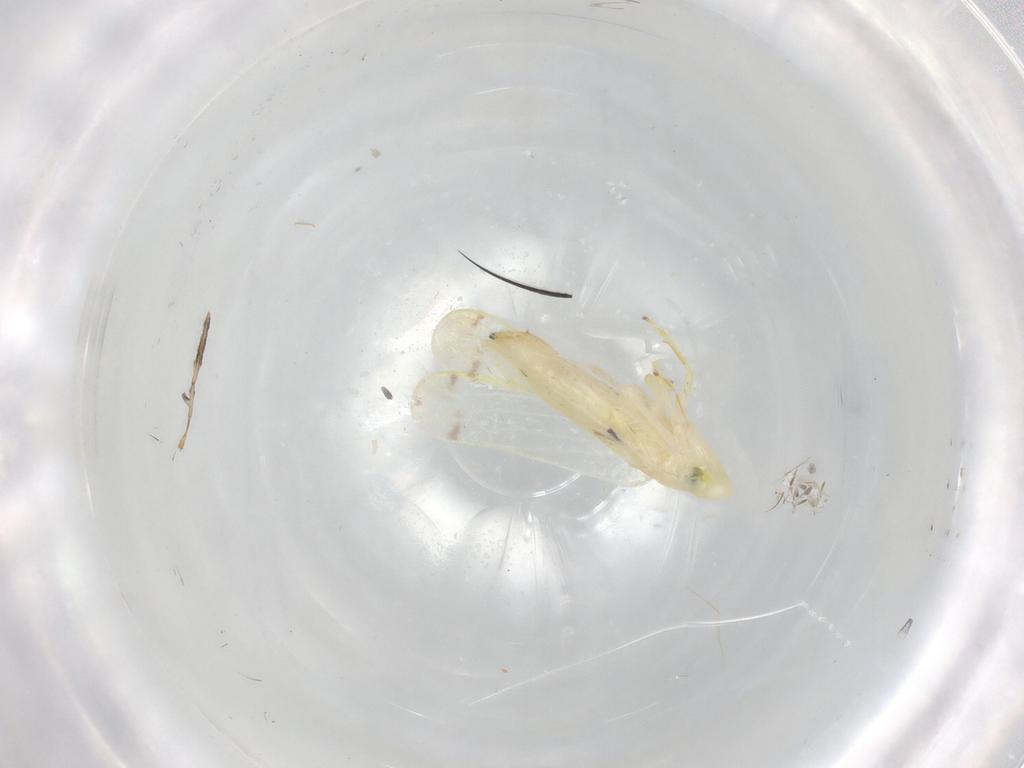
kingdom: Animalia
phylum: Arthropoda
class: Insecta
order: Hemiptera
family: Cicadellidae
